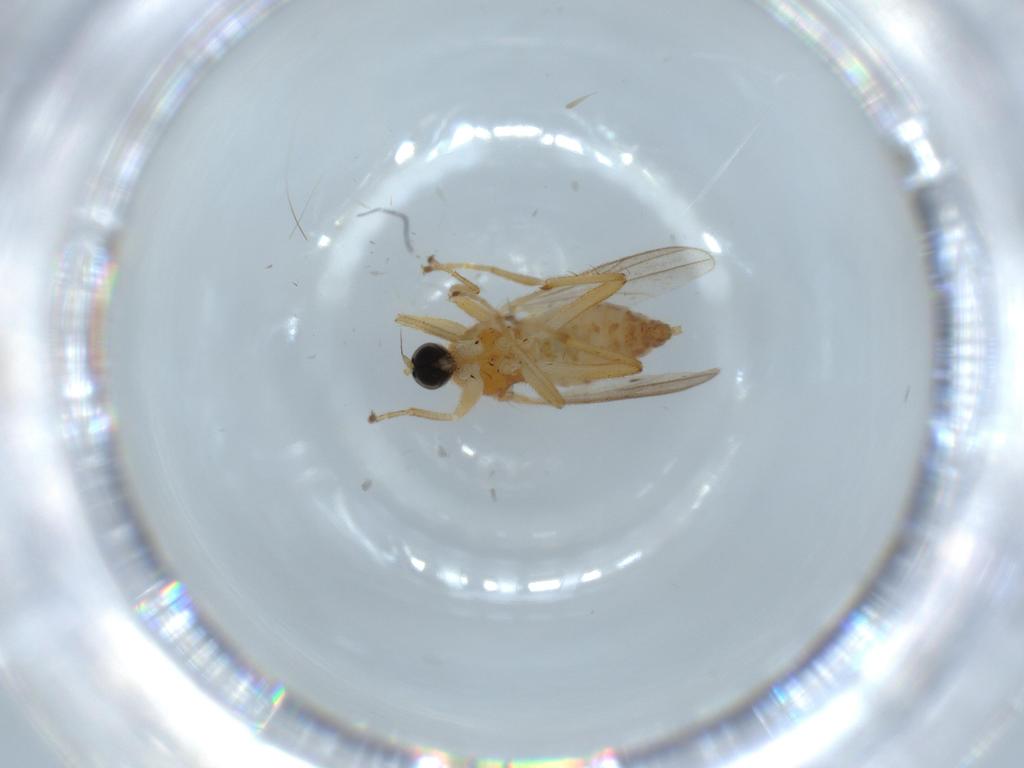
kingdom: Animalia
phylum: Arthropoda
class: Insecta
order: Diptera
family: Hybotidae
